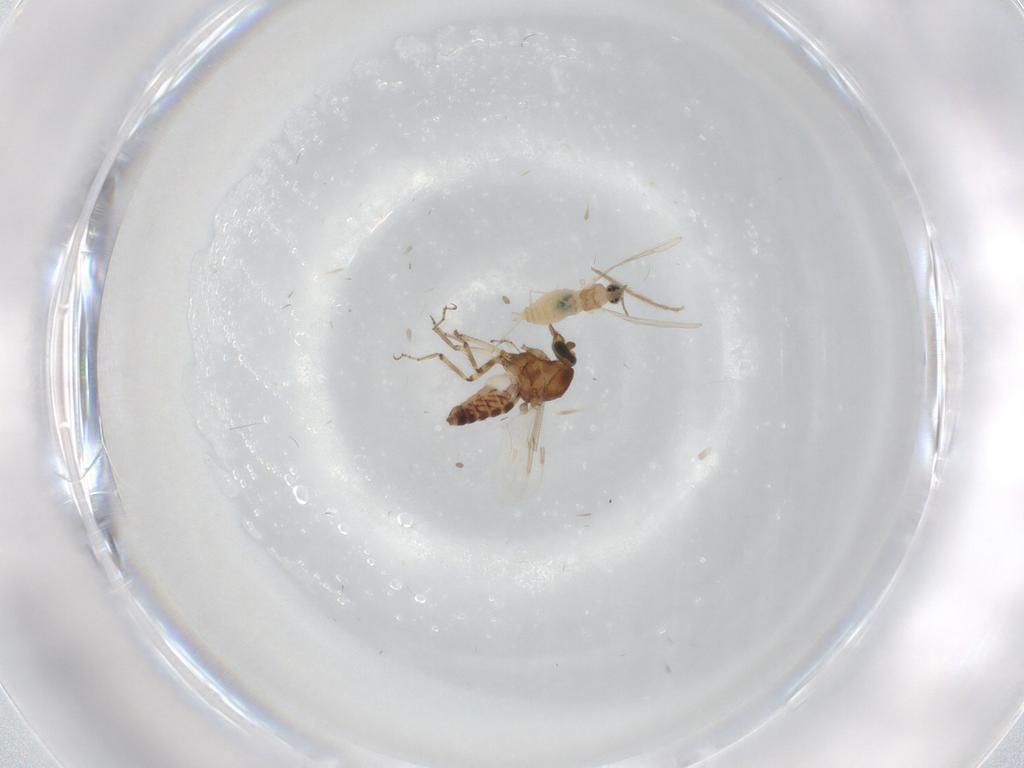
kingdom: Animalia
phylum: Arthropoda
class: Insecta
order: Diptera
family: Cecidomyiidae
